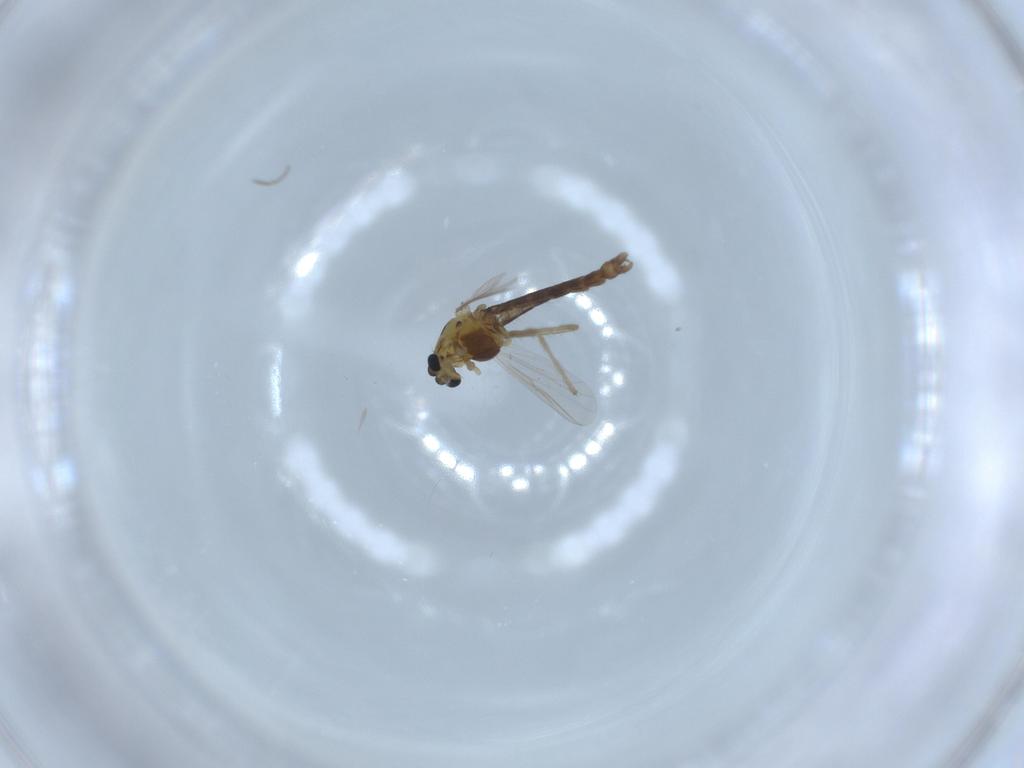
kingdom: Animalia
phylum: Arthropoda
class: Insecta
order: Diptera
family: Chironomidae
